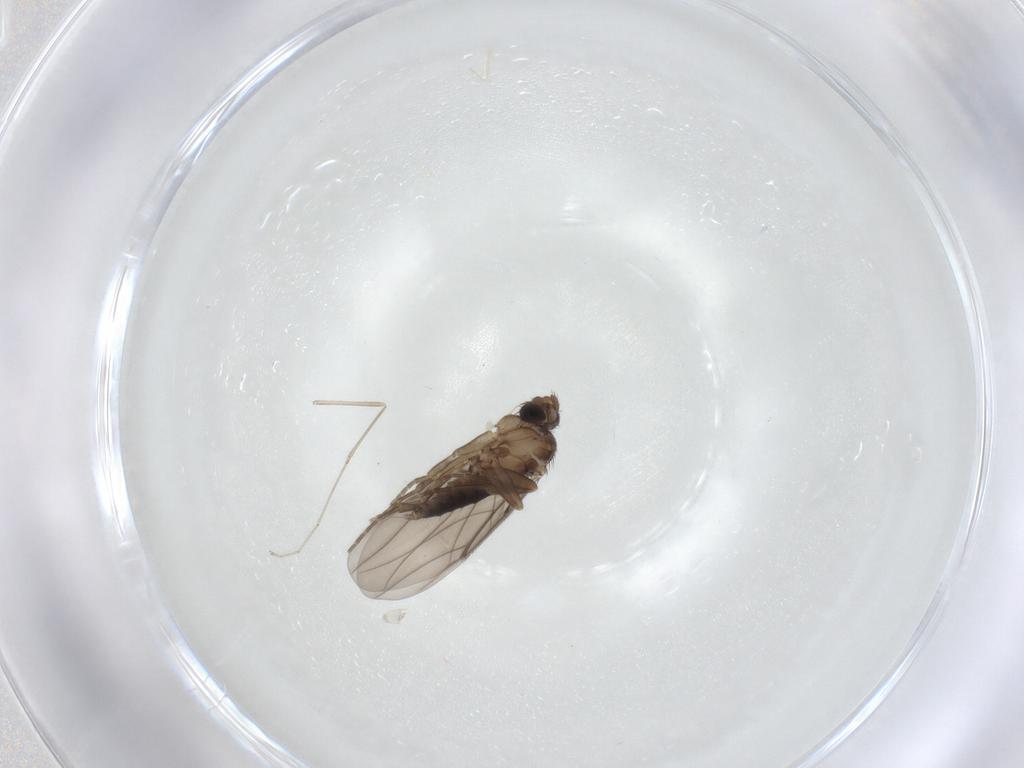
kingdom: Animalia
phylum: Arthropoda
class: Insecta
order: Diptera
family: Phoridae
